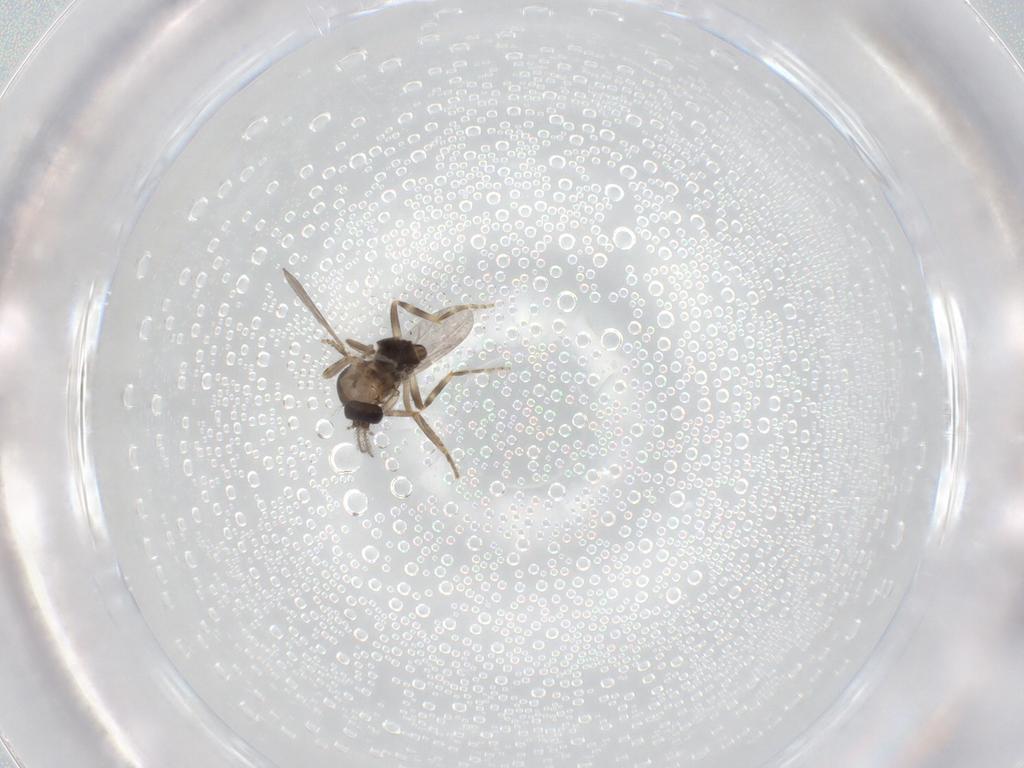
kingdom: Animalia
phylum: Arthropoda
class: Insecta
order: Diptera
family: Ceratopogonidae
